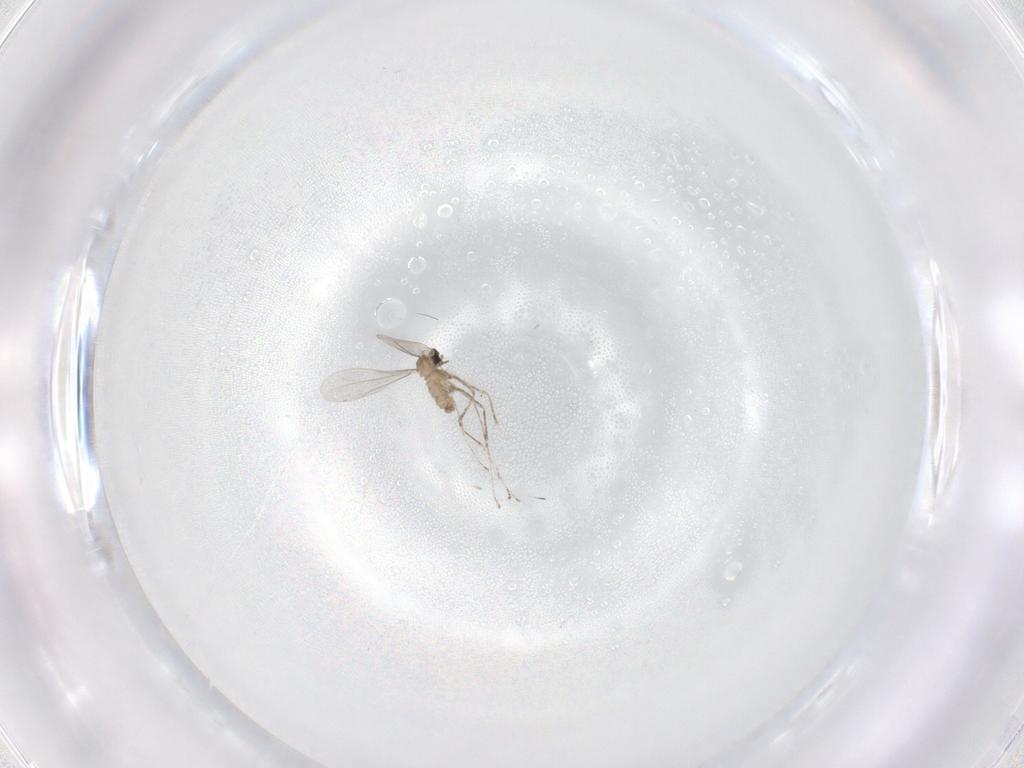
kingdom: Animalia
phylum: Arthropoda
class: Insecta
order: Diptera
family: Cecidomyiidae
